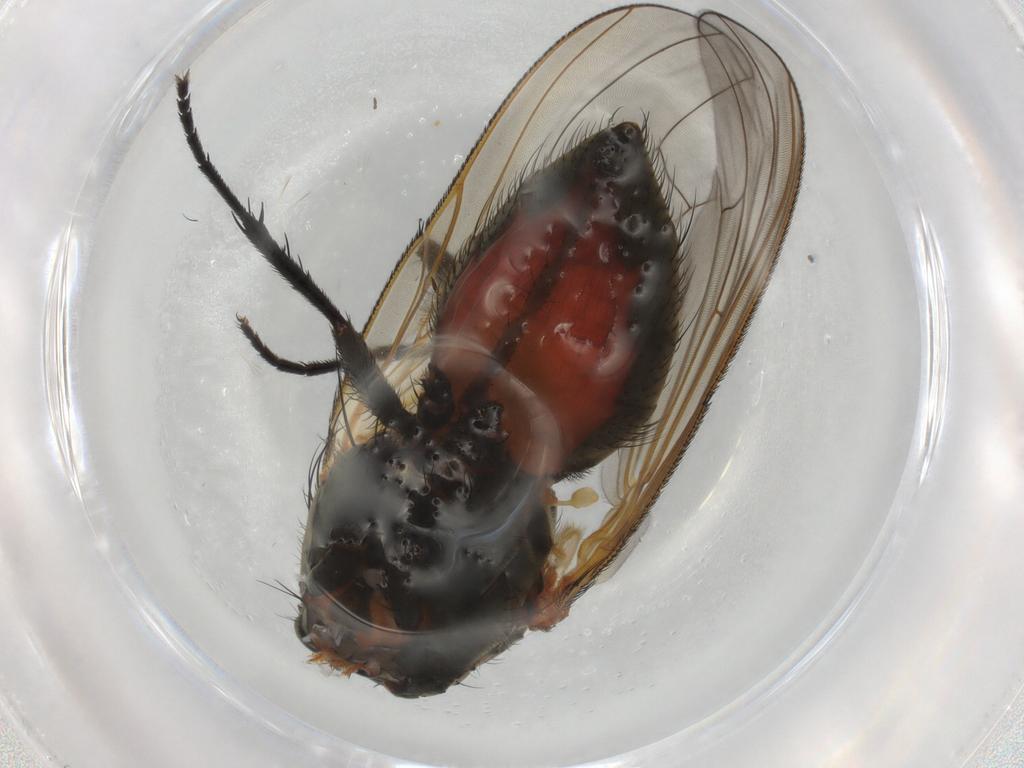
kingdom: Animalia
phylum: Arthropoda
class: Insecta
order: Diptera
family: Anthomyiidae
